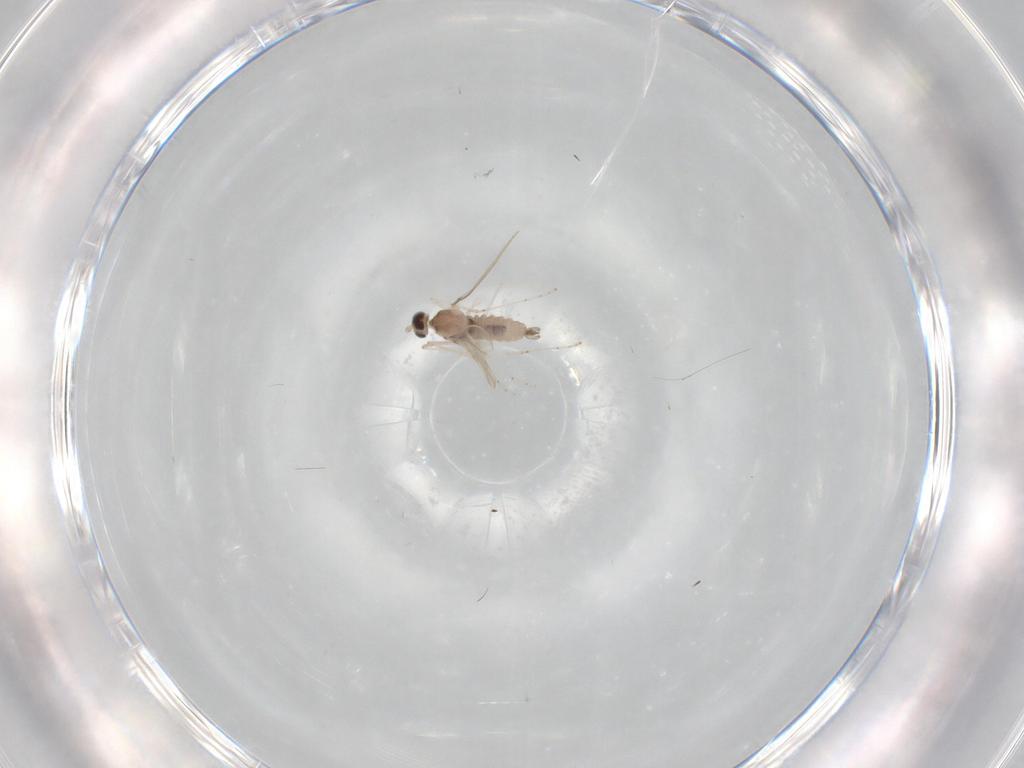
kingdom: Animalia
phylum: Arthropoda
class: Insecta
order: Diptera
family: Cecidomyiidae
